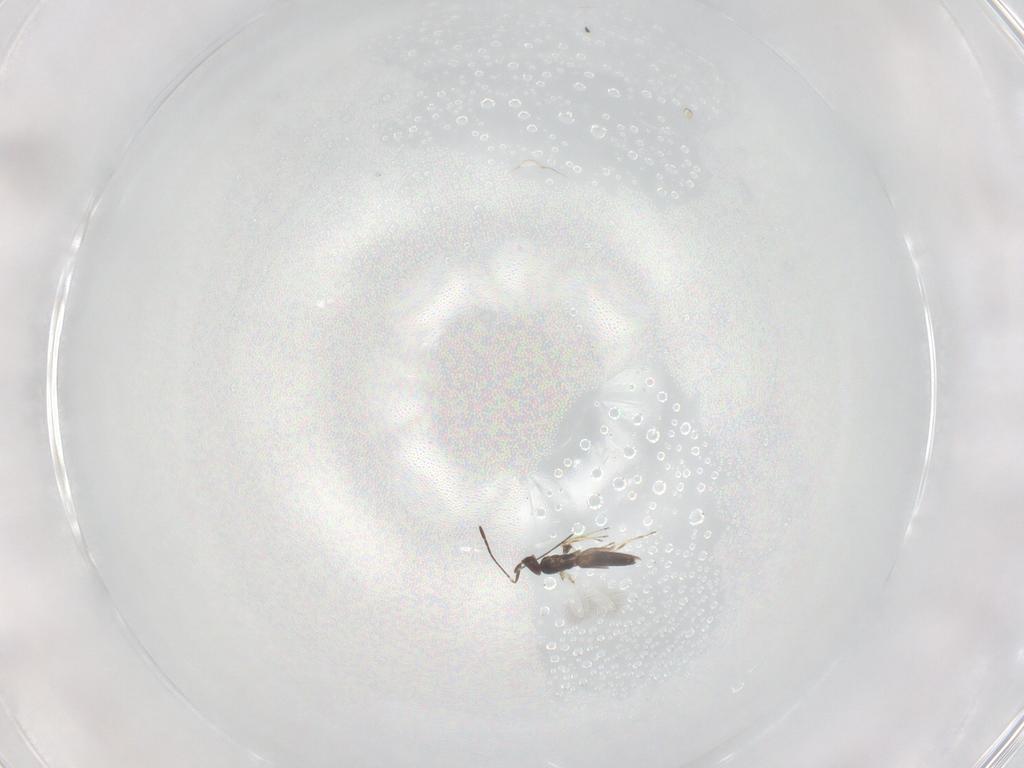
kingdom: Animalia
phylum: Arthropoda
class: Insecta
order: Hymenoptera
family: Mymaridae
